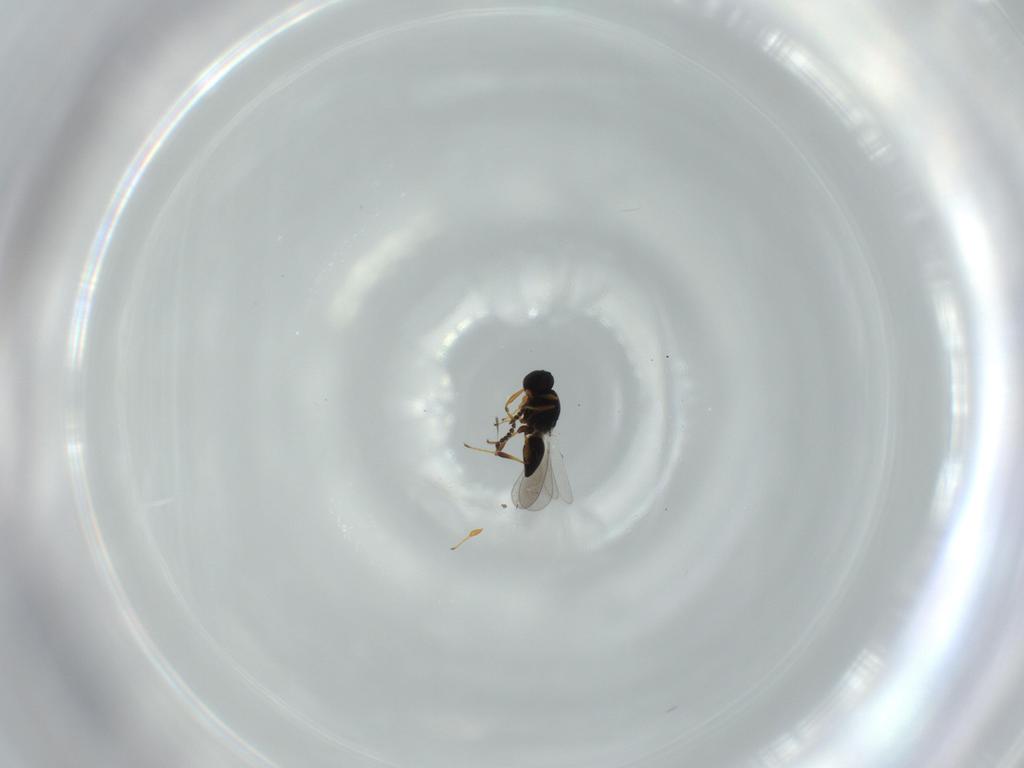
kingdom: Animalia
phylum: Arthropoda
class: Insecta
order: Hymenoptera
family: Platygastridae
